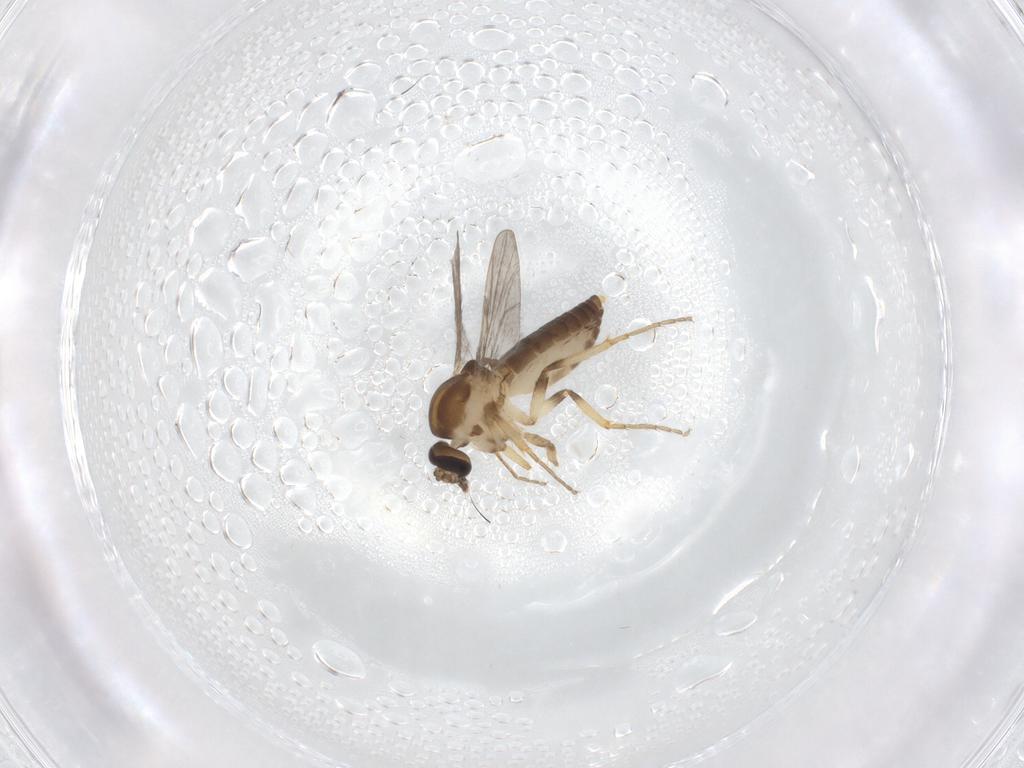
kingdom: Animalia
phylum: Arthropoda
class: Insecta
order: Diptera
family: Ceratopogonidae
